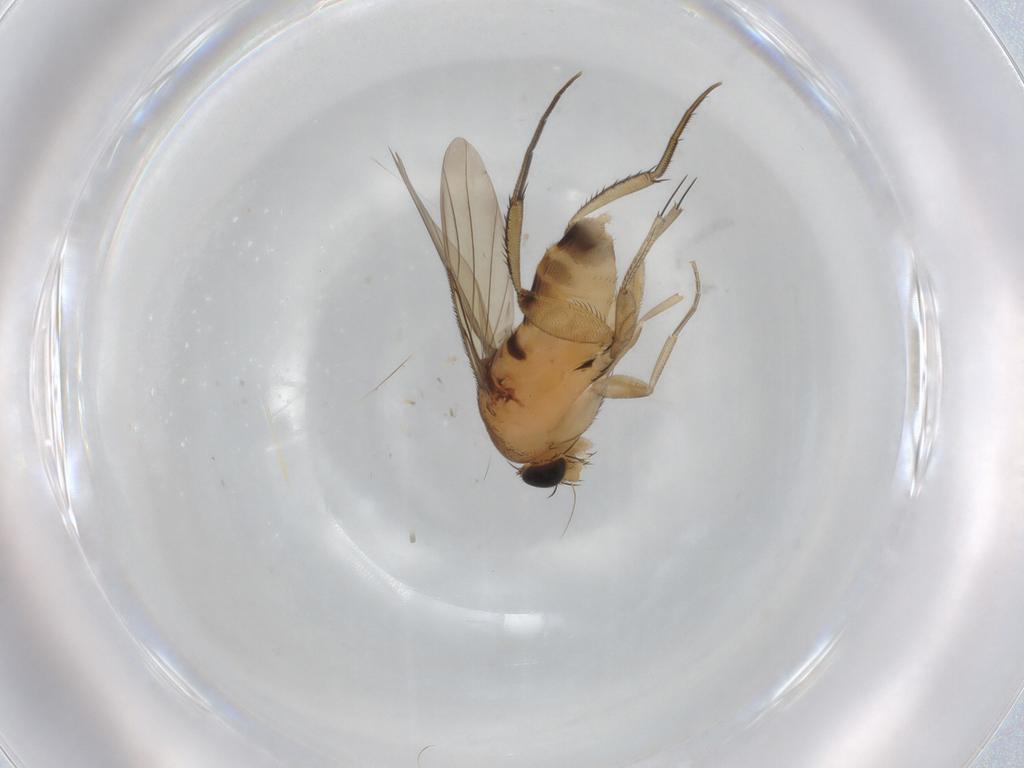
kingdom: Animalia
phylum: Arthropoda
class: Insecta
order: Diptera
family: Phoridae
